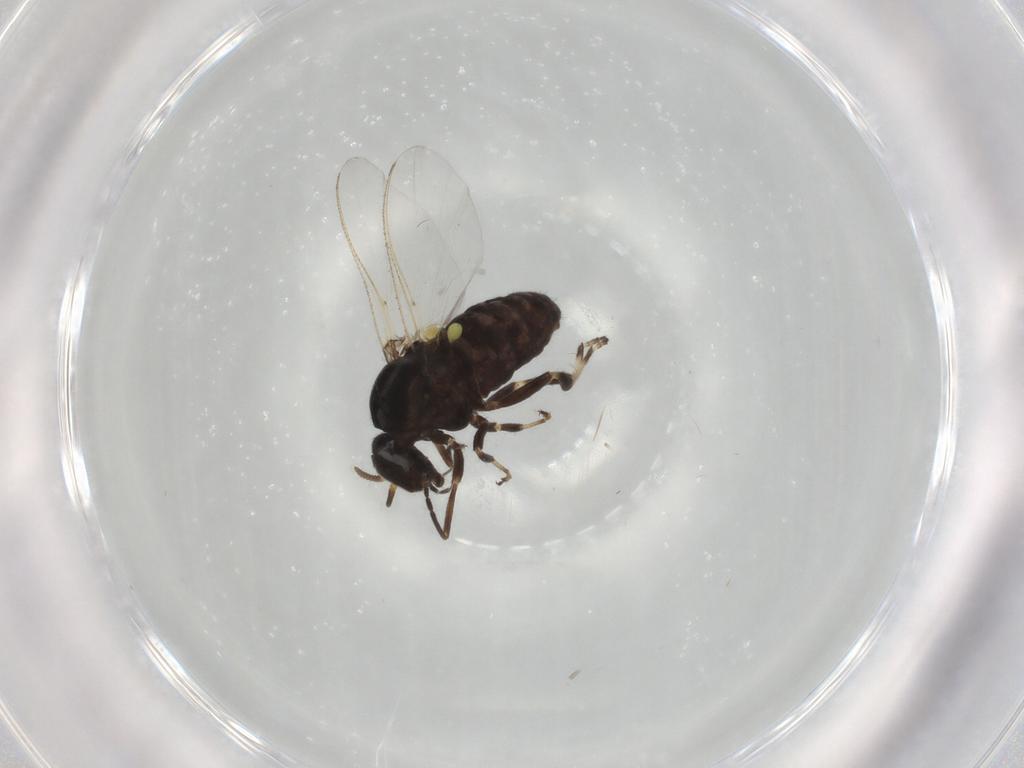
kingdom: Animalia
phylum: Arthropoda
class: Insecta
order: Diptera
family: Simuliidae
